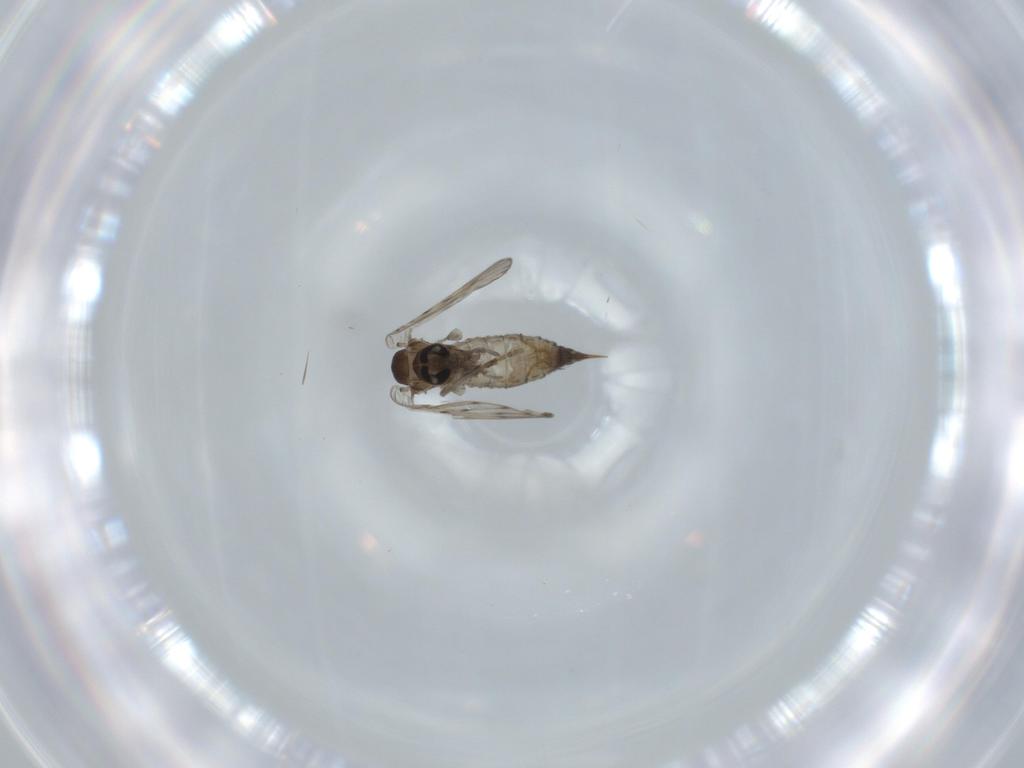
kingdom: Animalia
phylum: Arthropoda
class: Insecta
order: Diptera
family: Psychodidae
